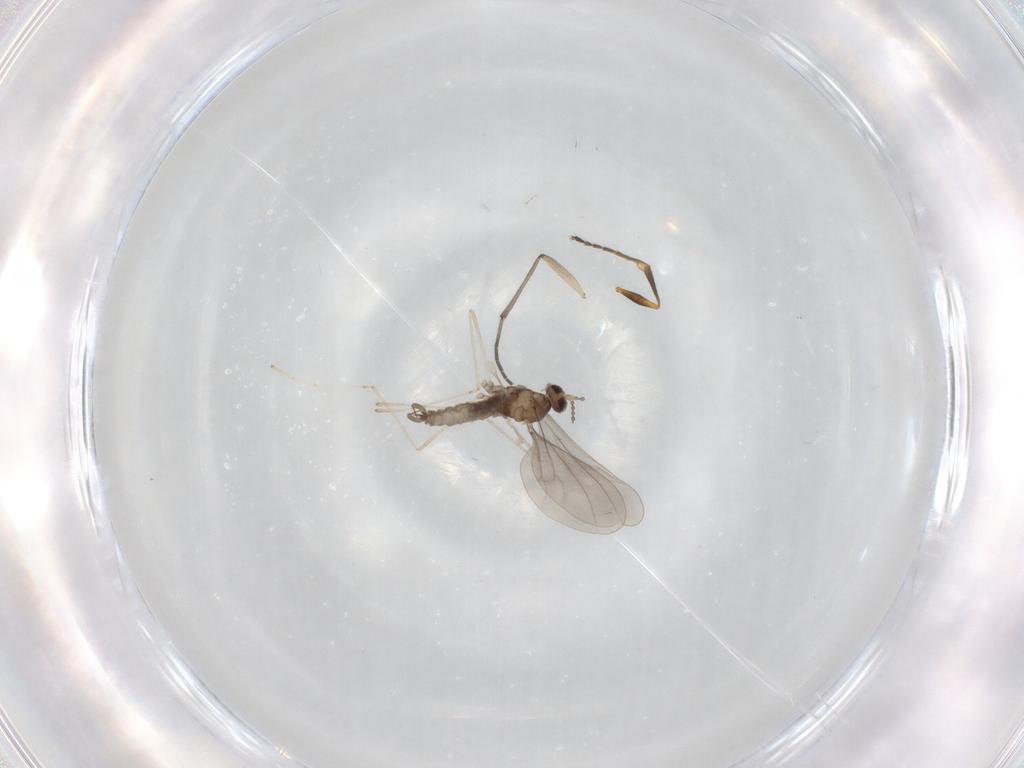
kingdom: Animalia
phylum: Arthropoda
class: Insecta
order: Diptera
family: Cecidomyiidae
